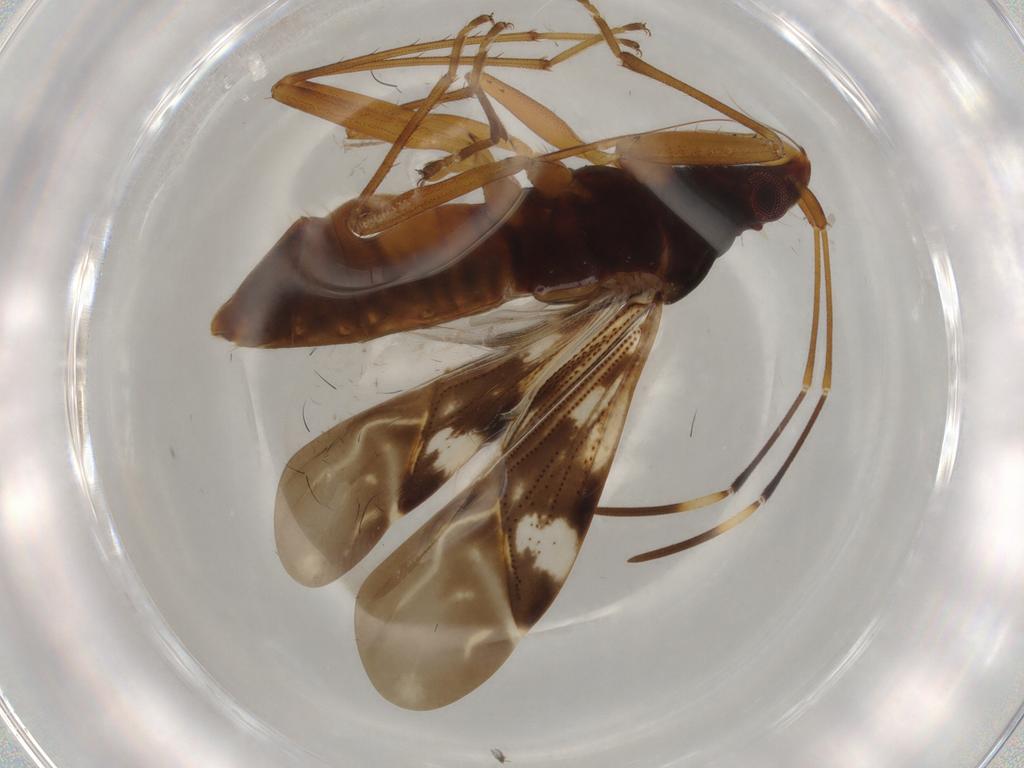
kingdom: Animalia
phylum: Arthropoda
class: Insecta
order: Hemiptera
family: Rhyparochromidae
